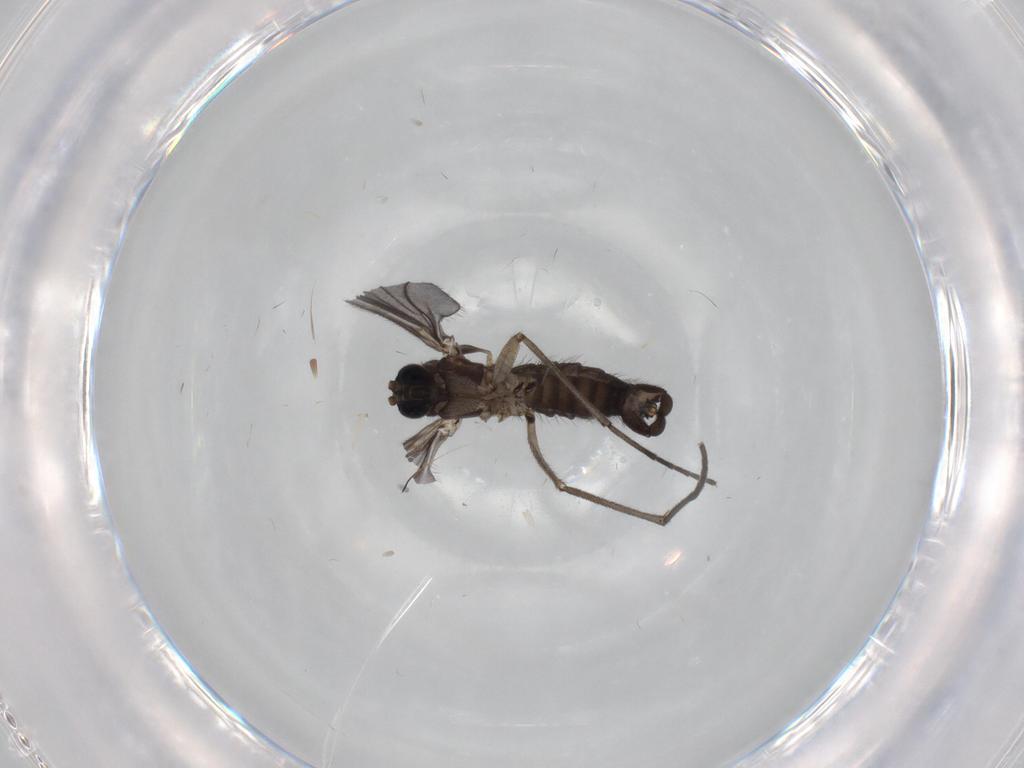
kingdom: Animalia
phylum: Arthropoda
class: Insecta
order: Diptera
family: Sciaridae
